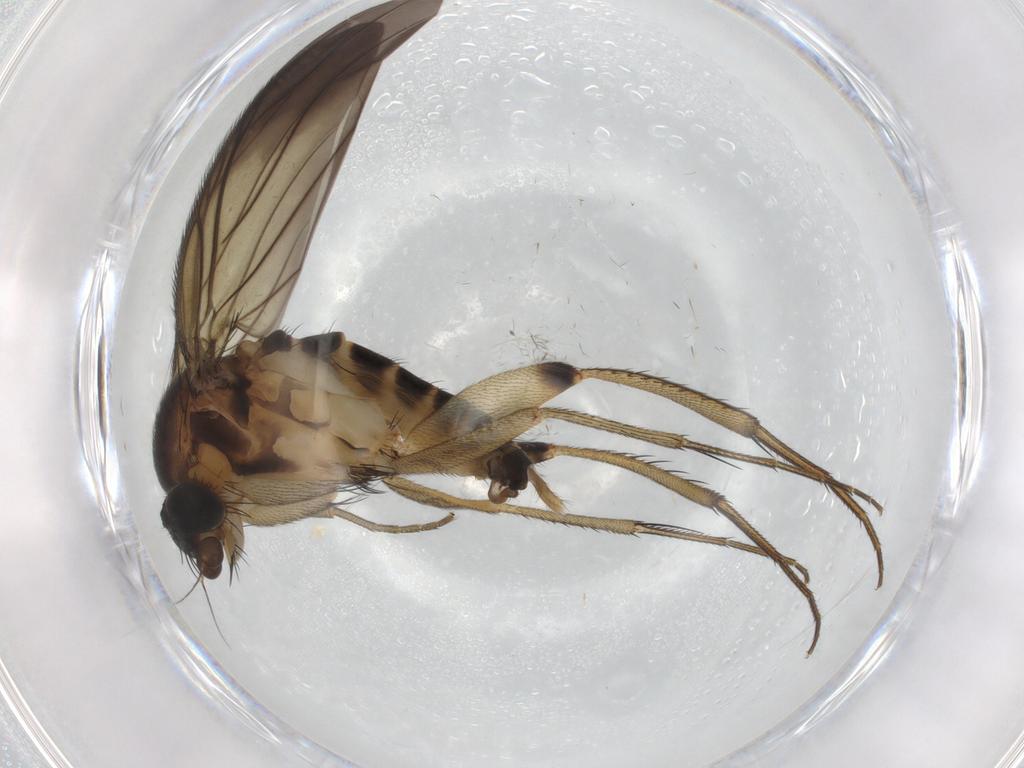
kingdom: Animalia
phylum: Arthropoda
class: Insecta
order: Diptera
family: Phoridae
